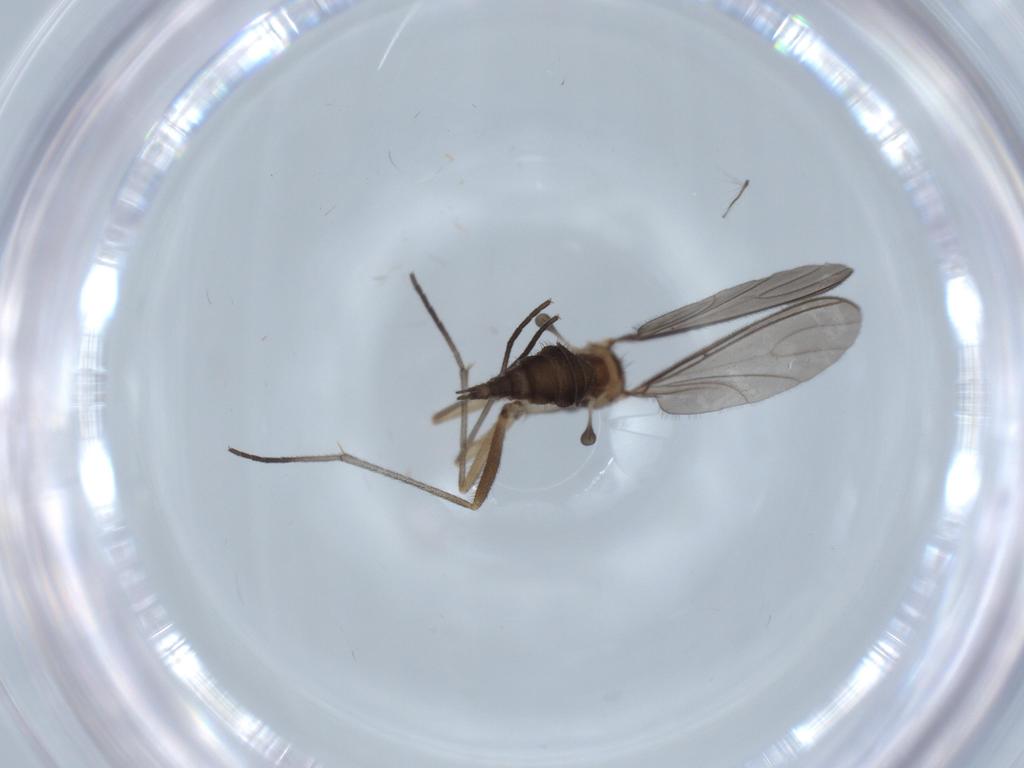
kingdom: Animalia
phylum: Arthropoda
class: Insecta
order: Diptera
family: Sciaridae
